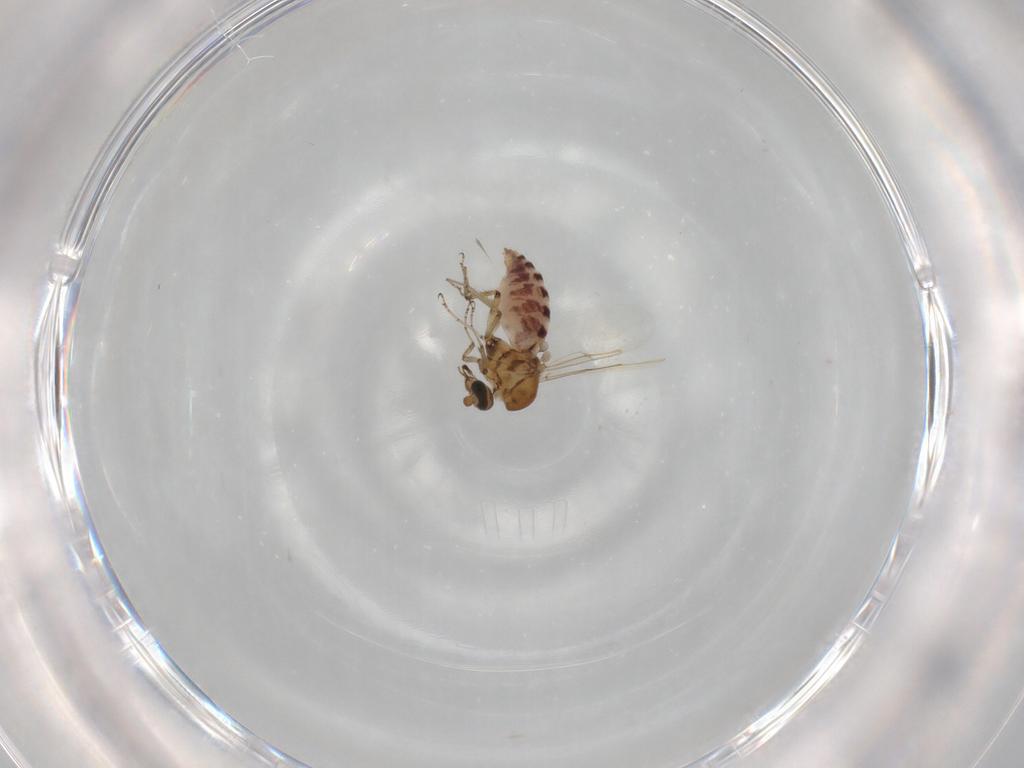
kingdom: Animalia
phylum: Arthropoda
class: Insecta
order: Diptera
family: Ceratopogonidae
